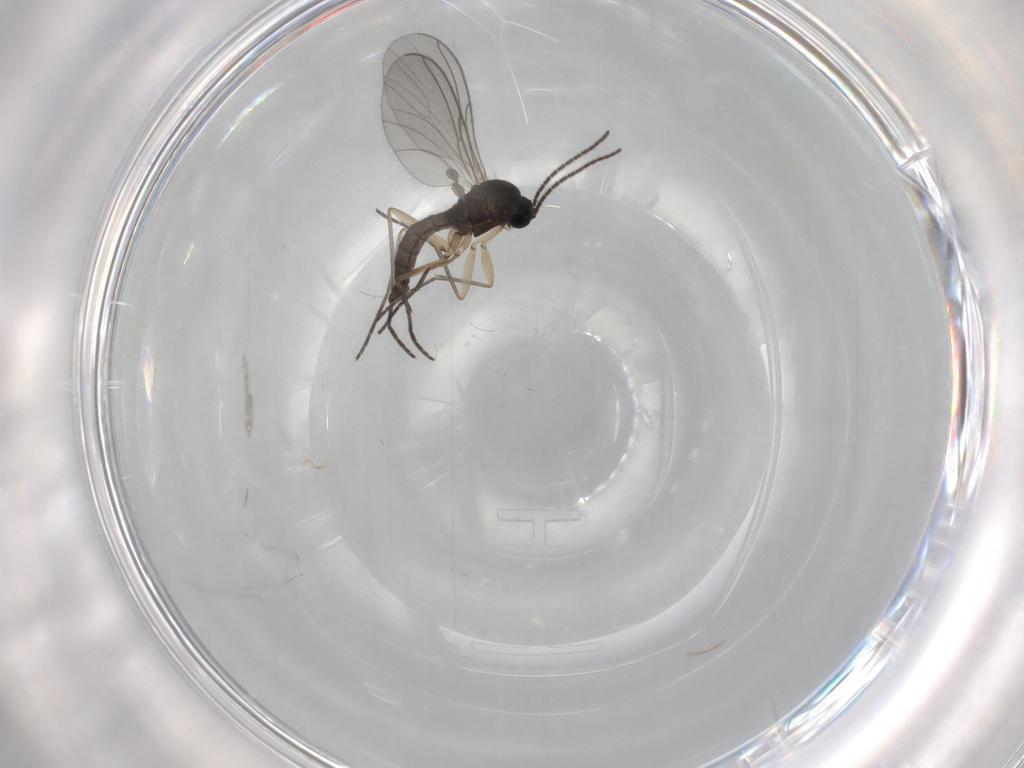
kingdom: Animalia
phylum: Arthropoda
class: Insecta
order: Diptera
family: Sciaridae
